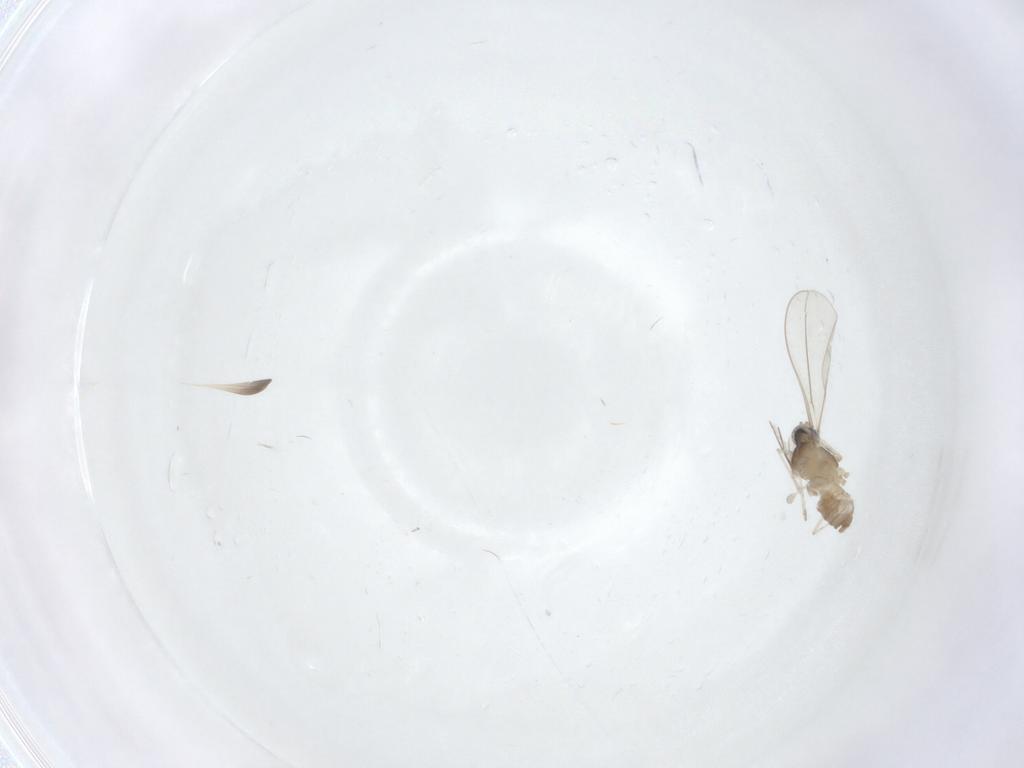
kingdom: Animalia
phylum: Arthropoda
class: Insecta
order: Diptera
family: Cecidomyiidae
